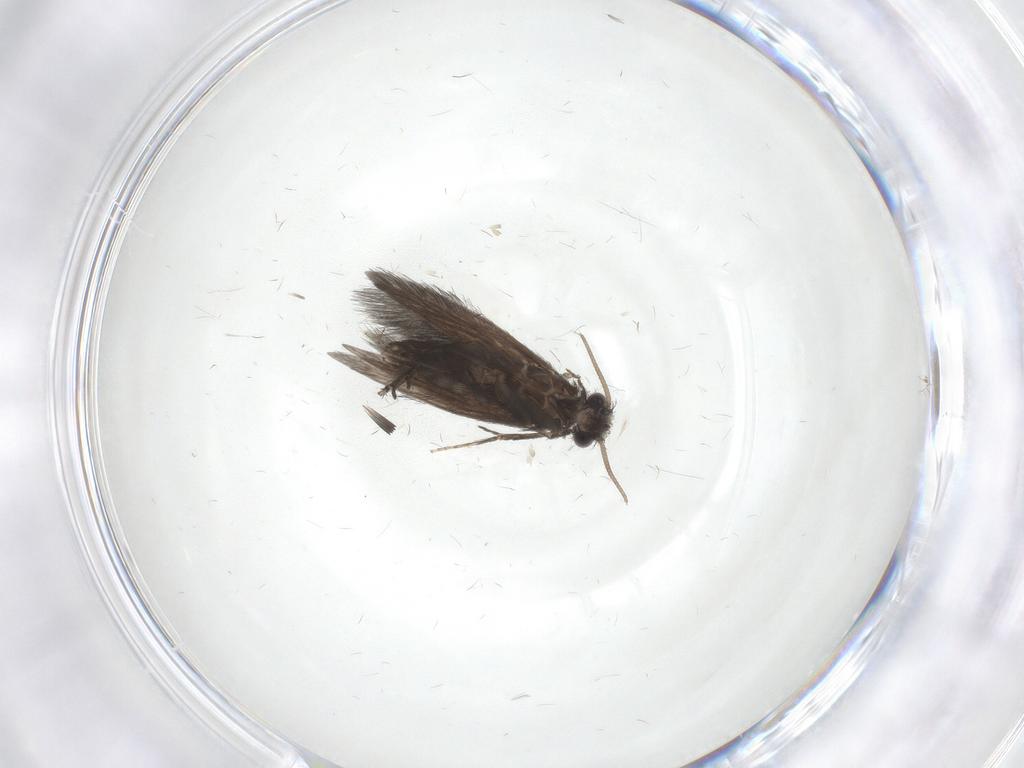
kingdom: Animalia
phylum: Arthropoda
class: Insecta
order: Trichoptera
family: Hydroptilidae
